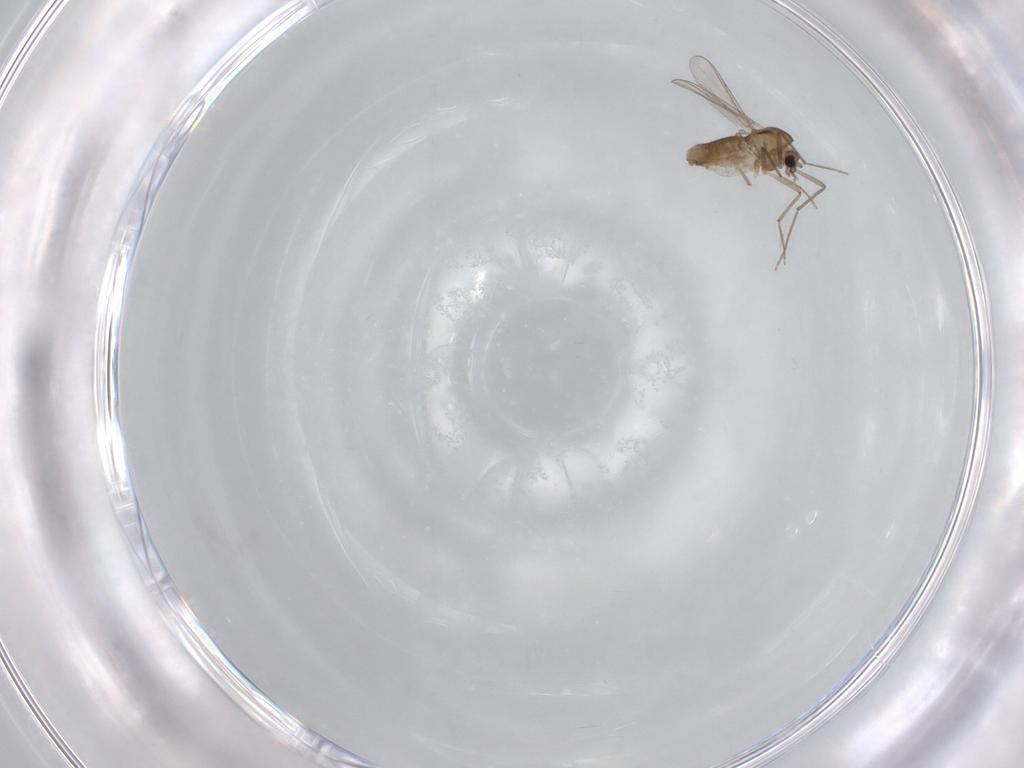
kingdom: Animalia
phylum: Arthropoda
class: Insecta
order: Diptera
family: Chironomidae
